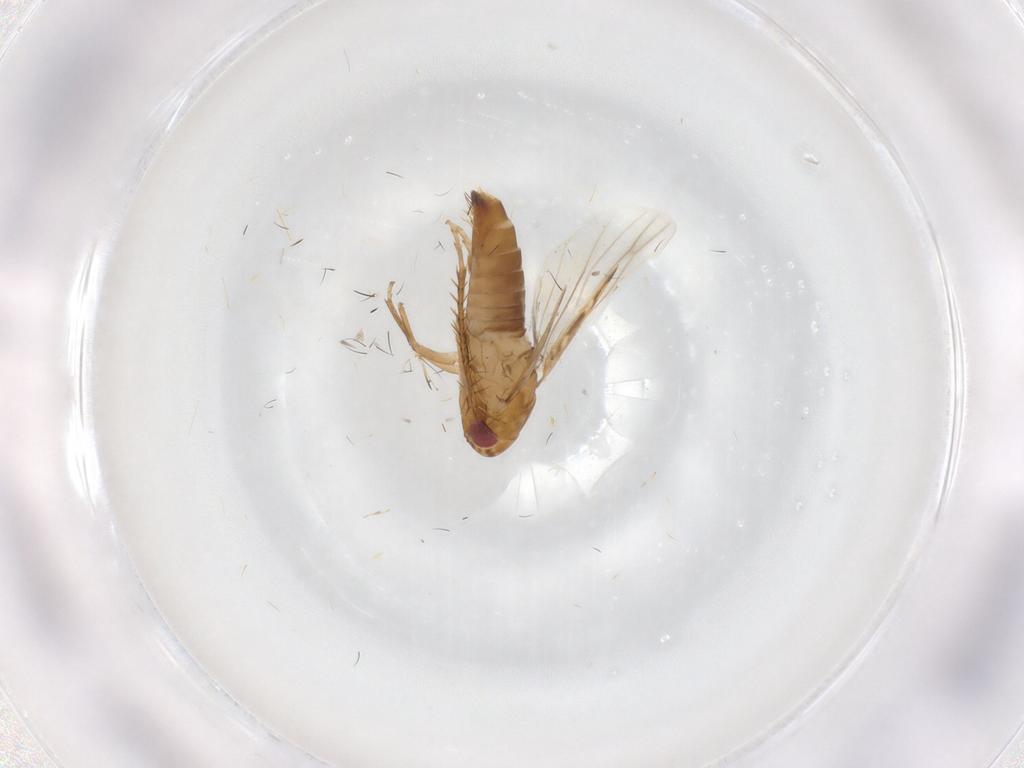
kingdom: Animalia
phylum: Arthropoda
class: Insecta
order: Hemiptera
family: Cicadellidae
